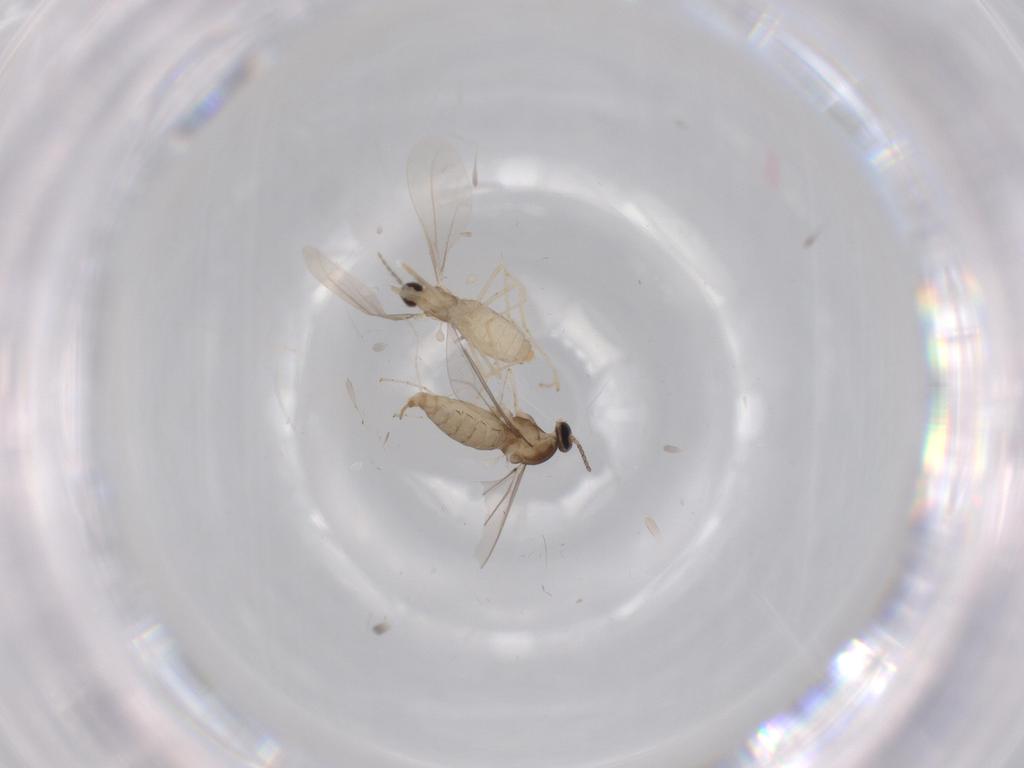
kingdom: Animalia
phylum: Arthropoda
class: Insecta
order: Diptera
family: Cecidomyiidae
